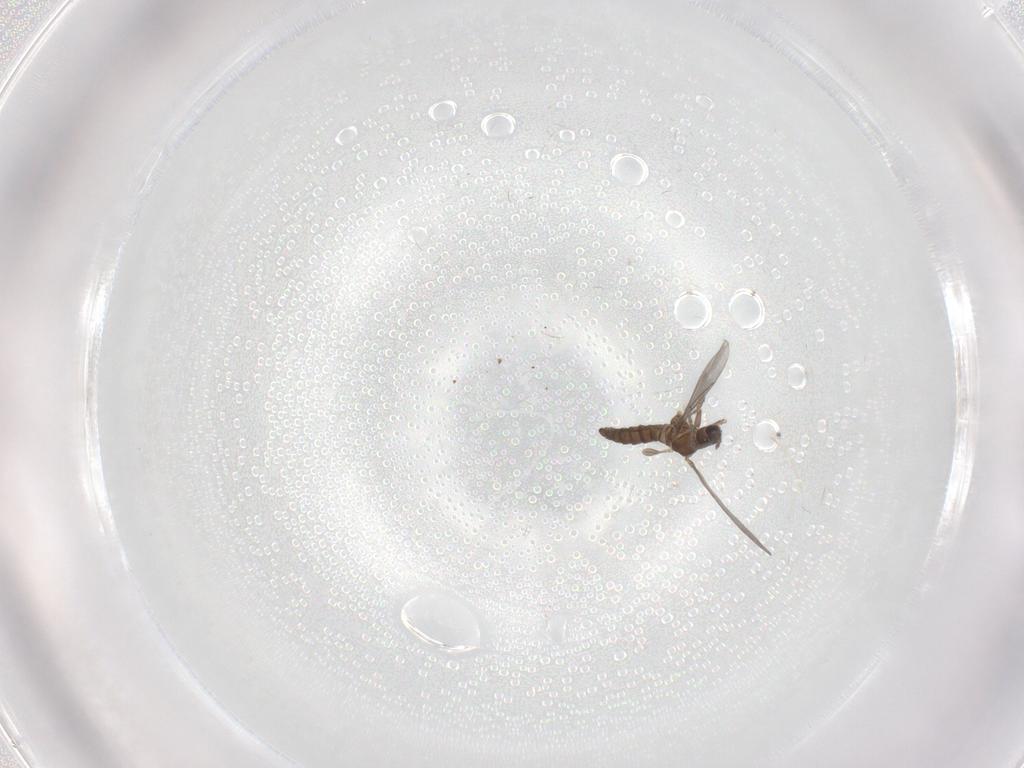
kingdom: Animalia
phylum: Arthropoda
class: Insecta
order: Diptera
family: Sciaridae
